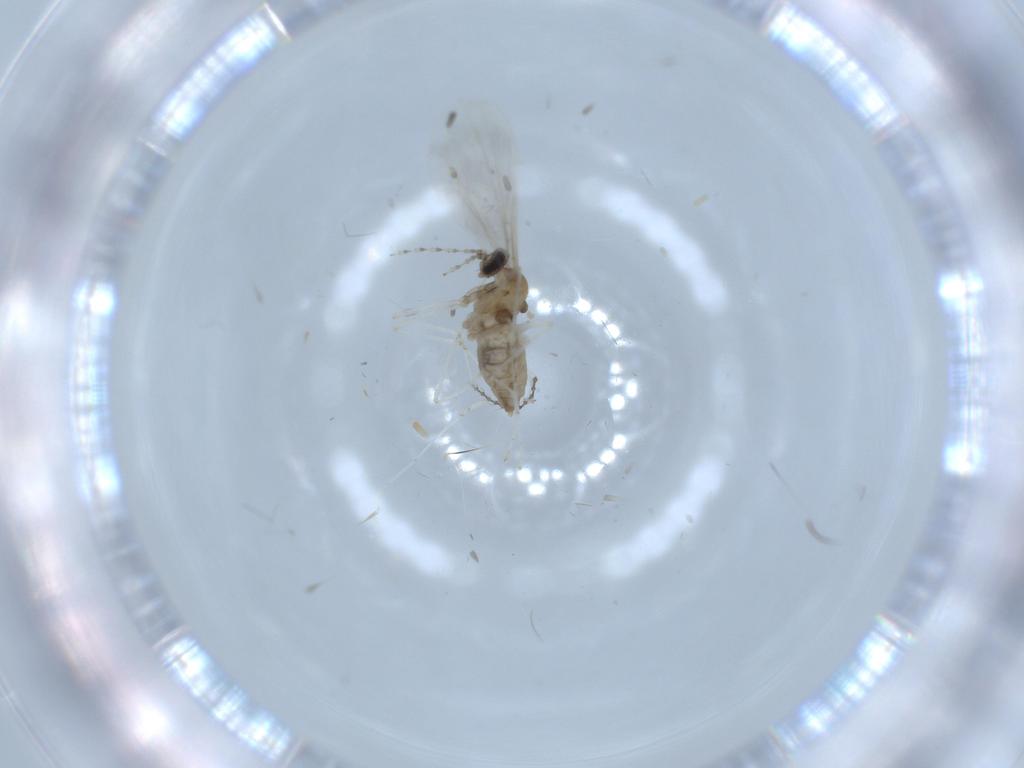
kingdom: Animalia
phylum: Arthropoda
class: Insecta
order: Diptera
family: Cecidomyiidae
